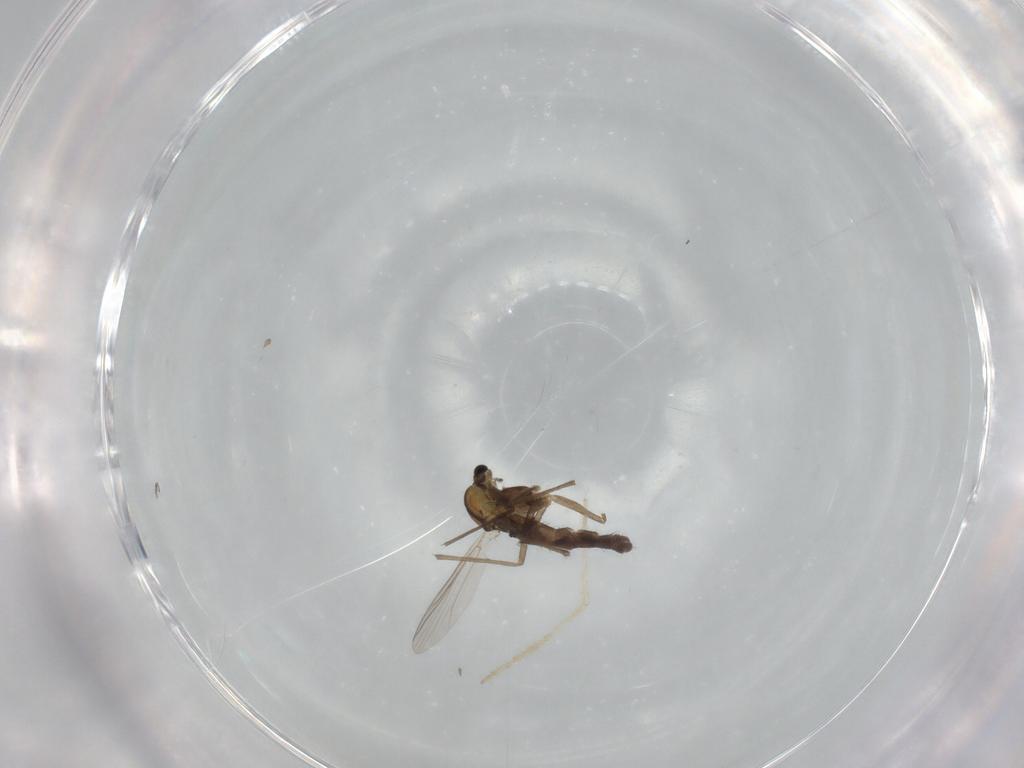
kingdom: Animalia
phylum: Arthropoda
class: Insecta
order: Diptera
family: Chironomidae
